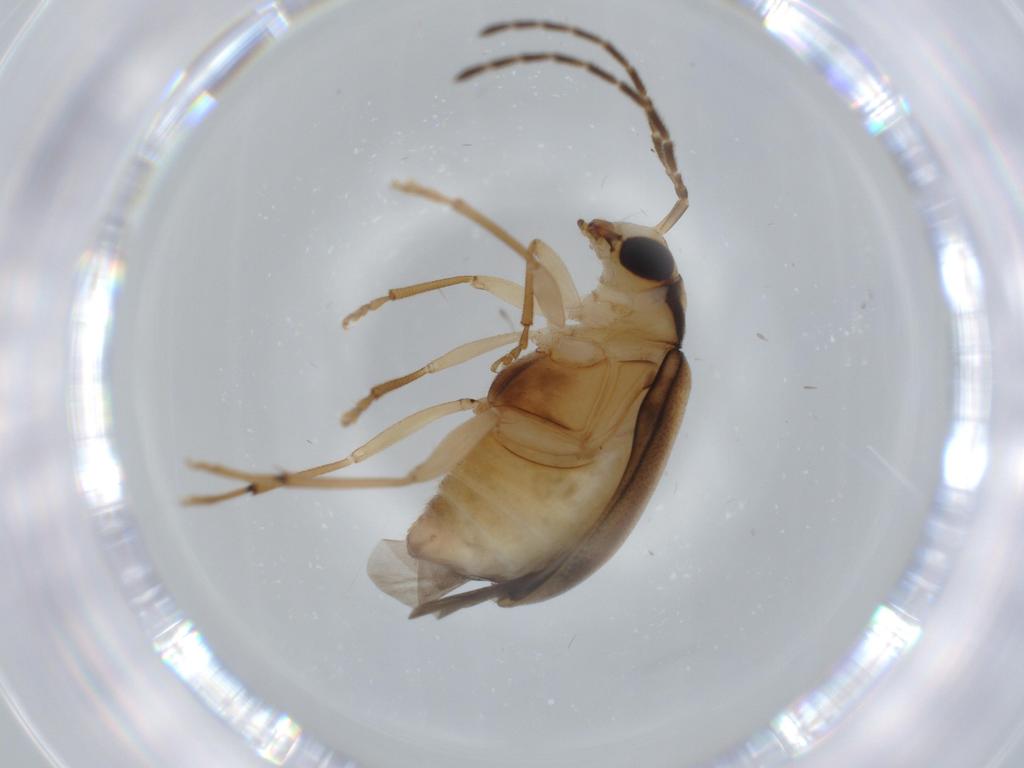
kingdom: Animalia
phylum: Arthropoda
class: Insecta
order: Coleoptera
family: Chrysomelidae
